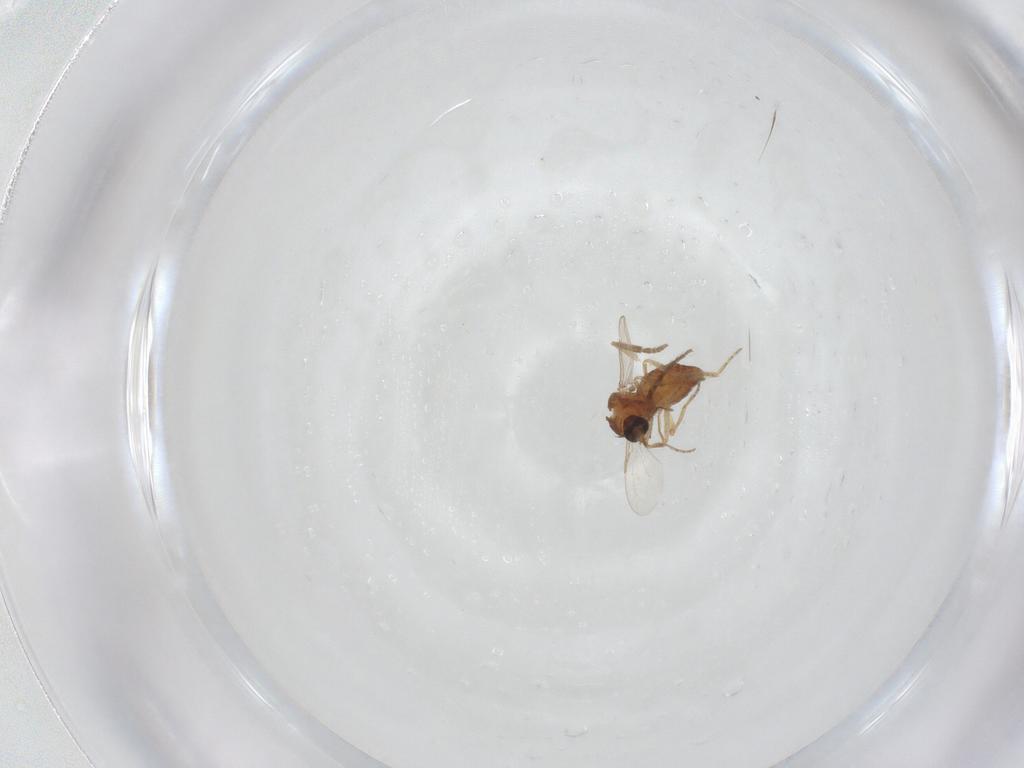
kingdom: Animalia
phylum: Arthropoda
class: Insecta
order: Diptera
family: Ceratopogonidae
